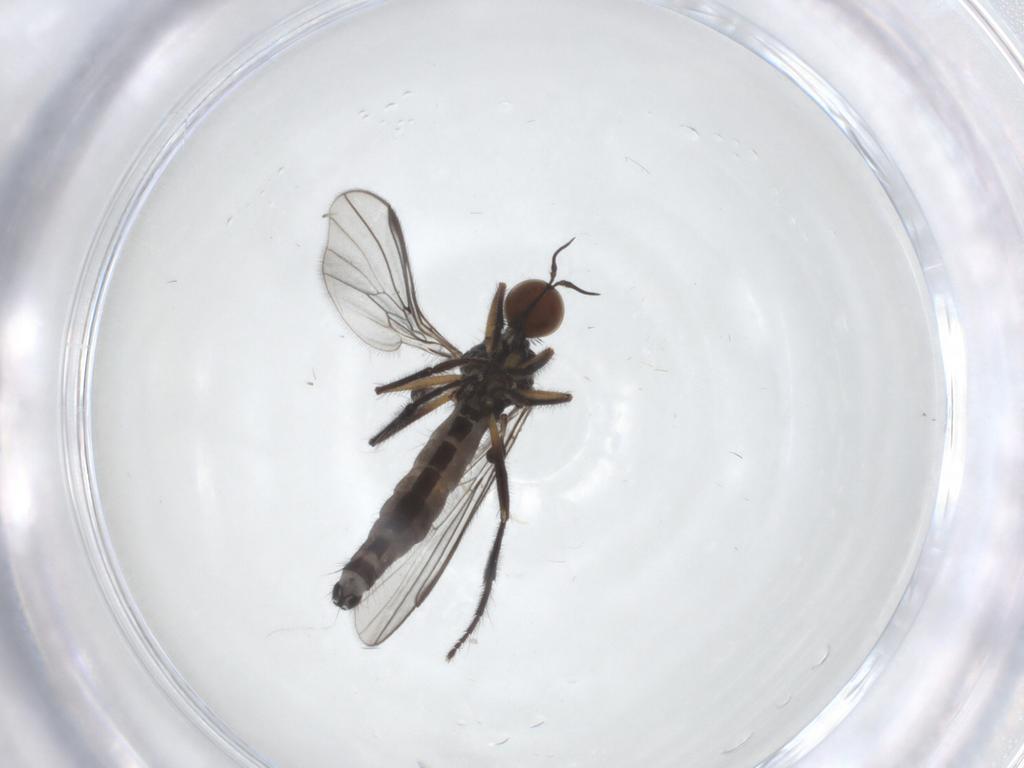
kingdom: Animalia
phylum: Arthropoda
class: Insecta
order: Diptera
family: Empididae
